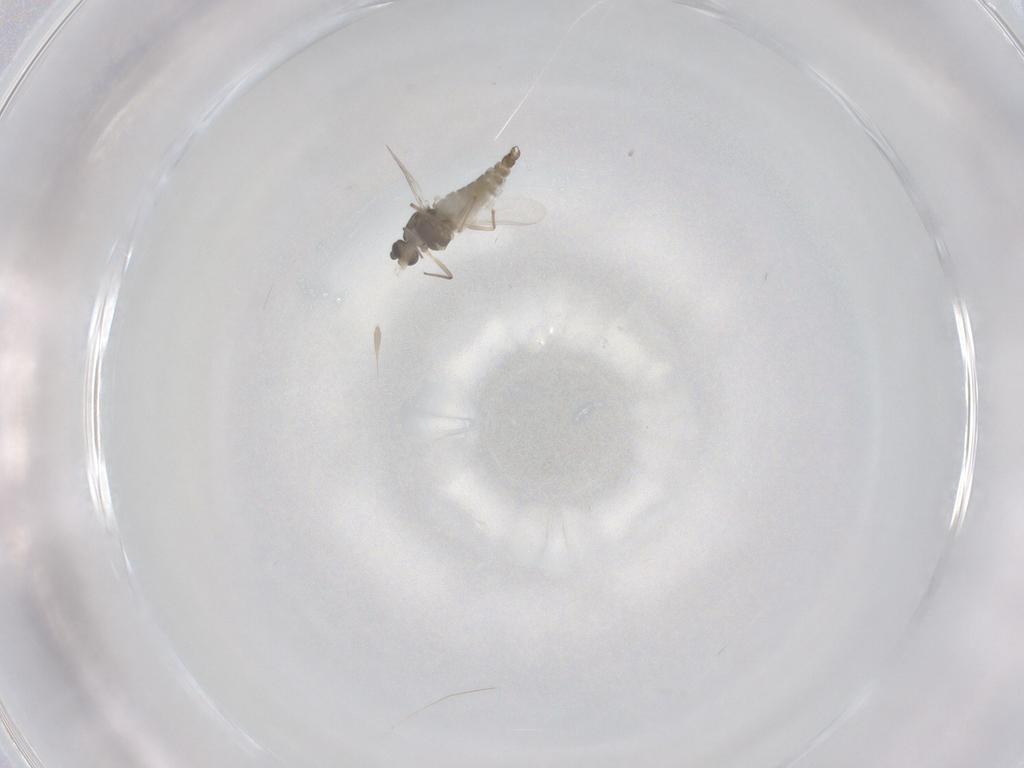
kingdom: Animalia
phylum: Arthropoda
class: Insecta
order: Diptera
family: Chironomidae
